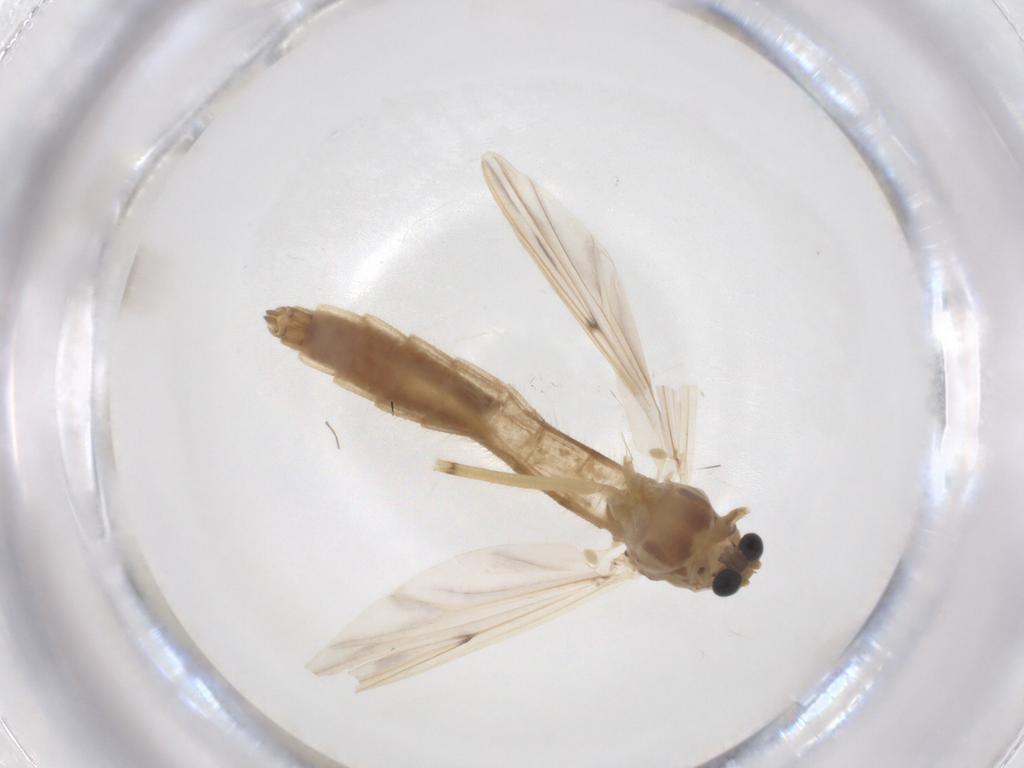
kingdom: Animalia
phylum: Arthropoda
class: Insecta
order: Diptera
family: Chironomidae
